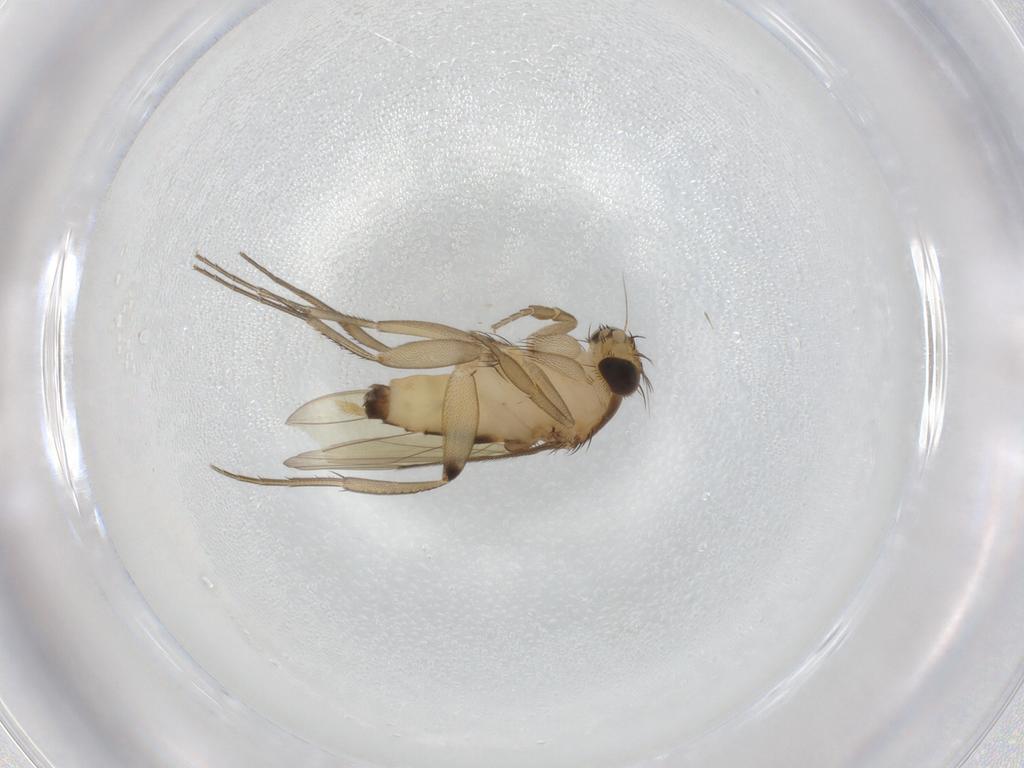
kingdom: Animalia
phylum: Arthropoda
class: Insecta
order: Diptera
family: Phoridae
